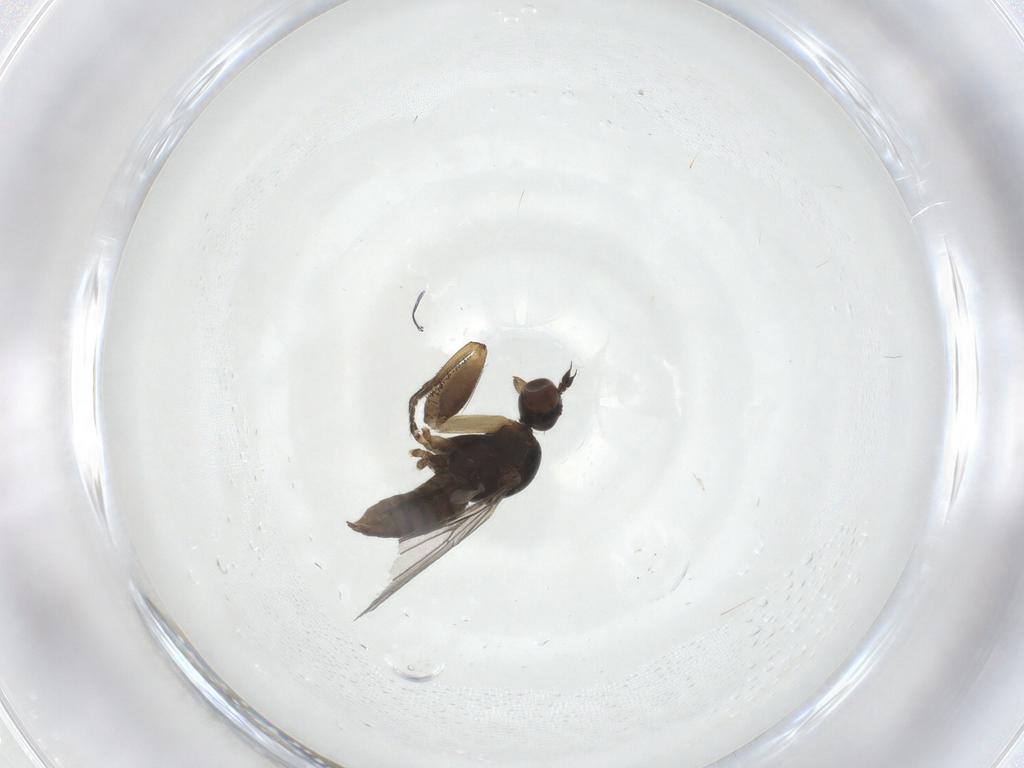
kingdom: Animalia
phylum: Arthropoda
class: Insecta
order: Diptera
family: Empididae
